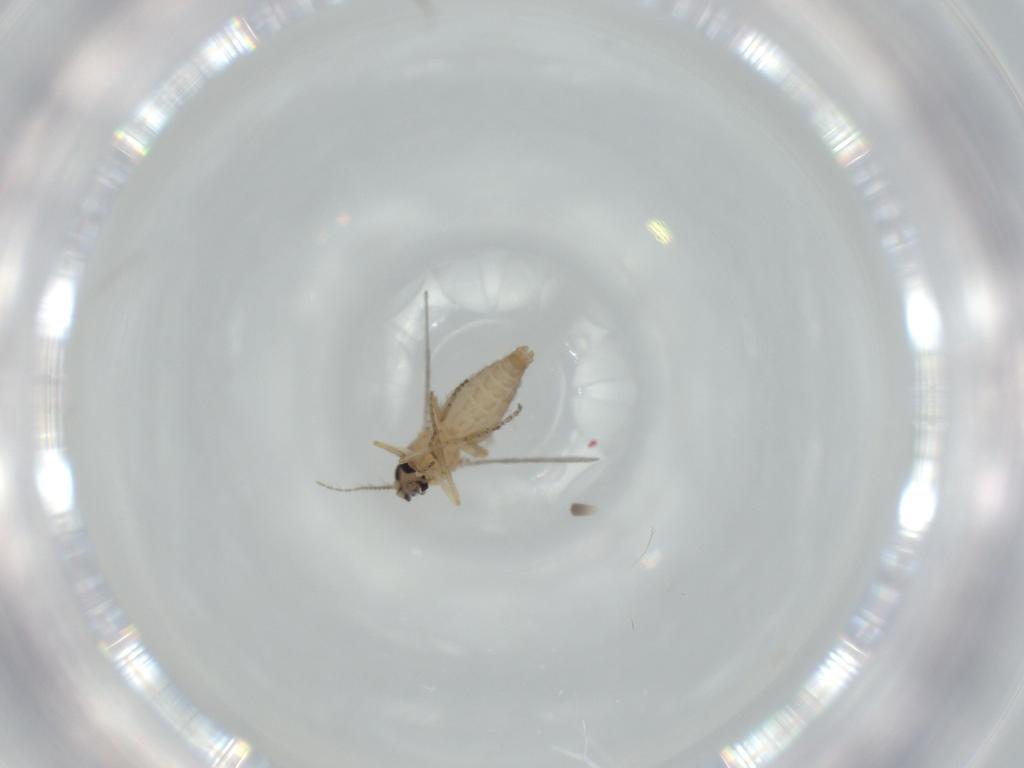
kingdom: Animalia
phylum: Arthropoda
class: Insecta
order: Diptera
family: Ceratopogonidae
